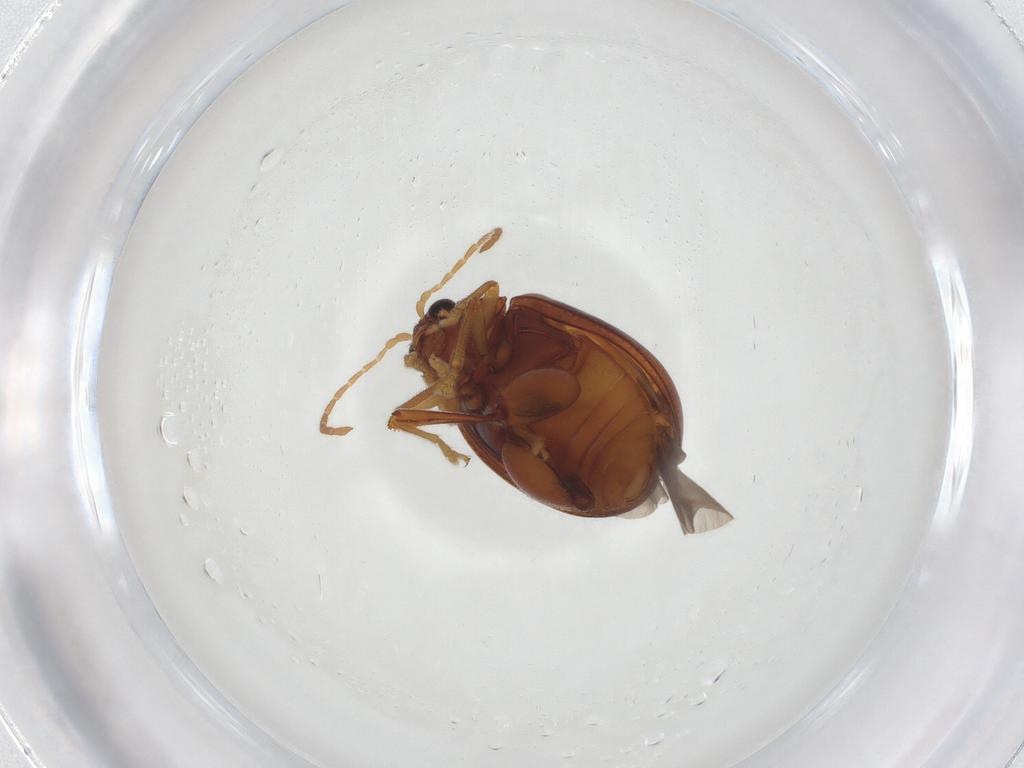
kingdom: Animalia
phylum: Arthropoda
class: Insecta
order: Coleoptera
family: Chrysomelidae
